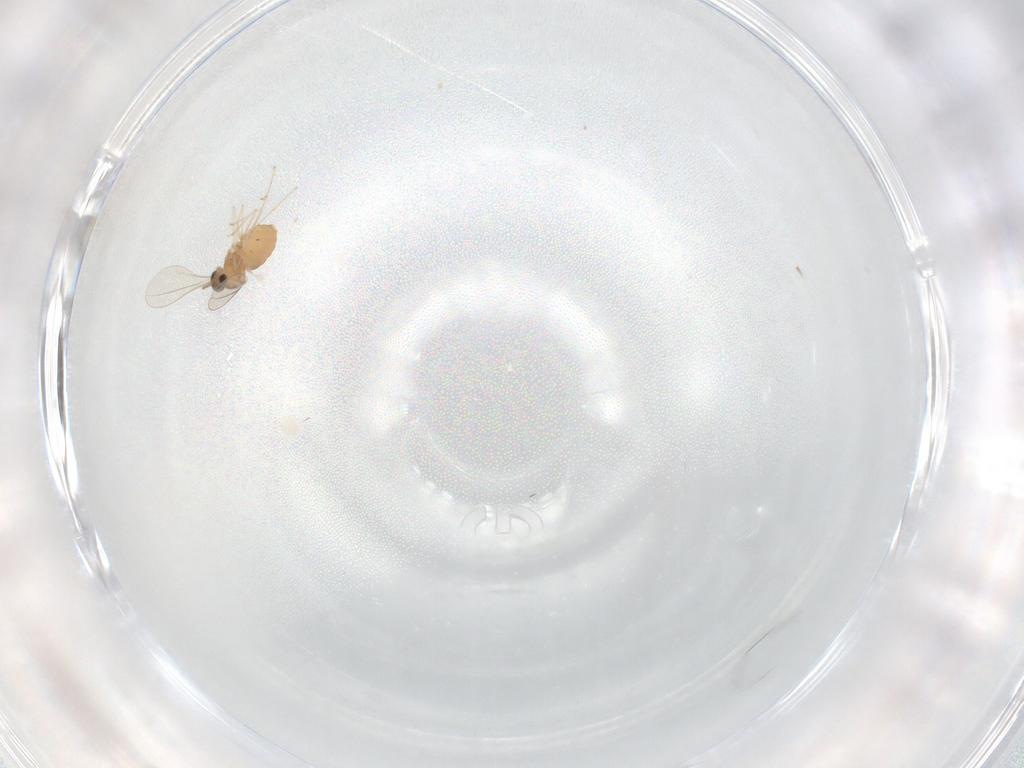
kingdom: Animalia
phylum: Arthropoda
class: Insecta
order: Diptera
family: Cecidomyiidae
